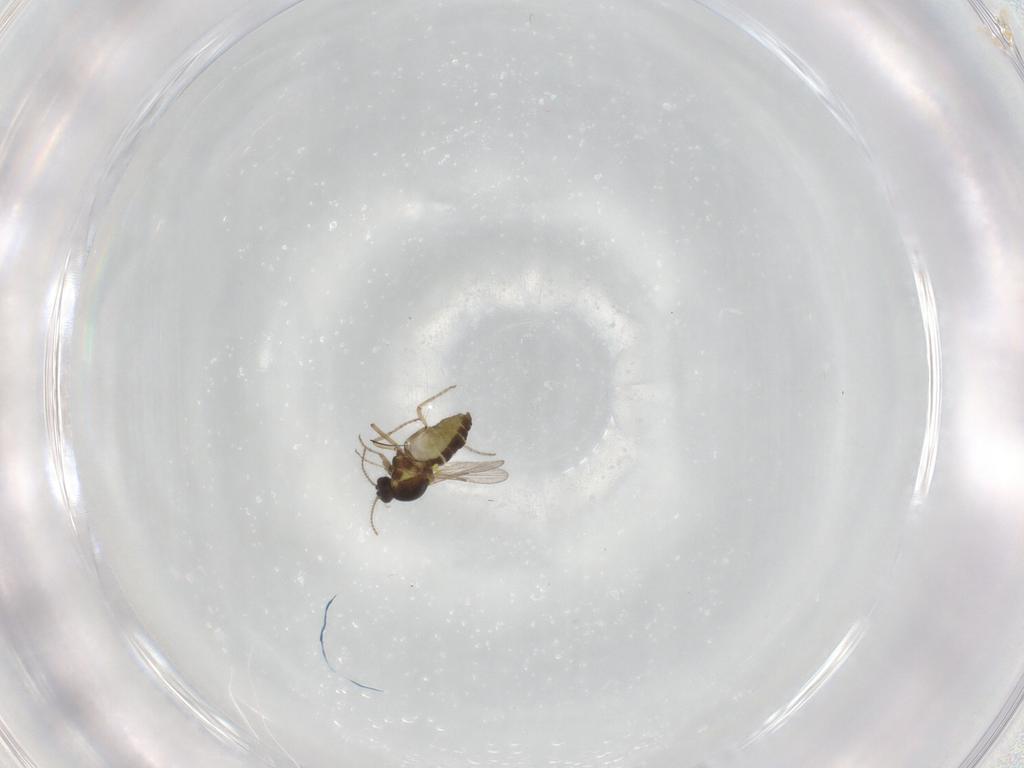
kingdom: Animalia
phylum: Arthropoda
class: Insecta
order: Diptera
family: Ceratopogonidae
